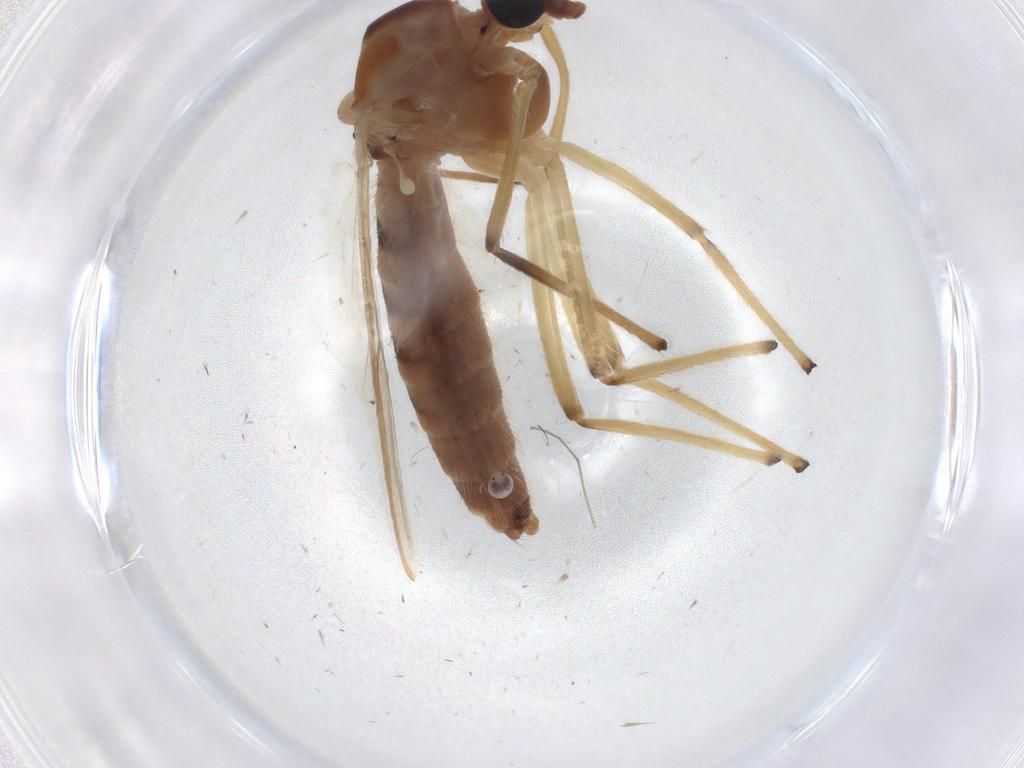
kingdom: Animalia
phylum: Arthropoda
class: Insecta
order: Diptera
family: Chironomidae
